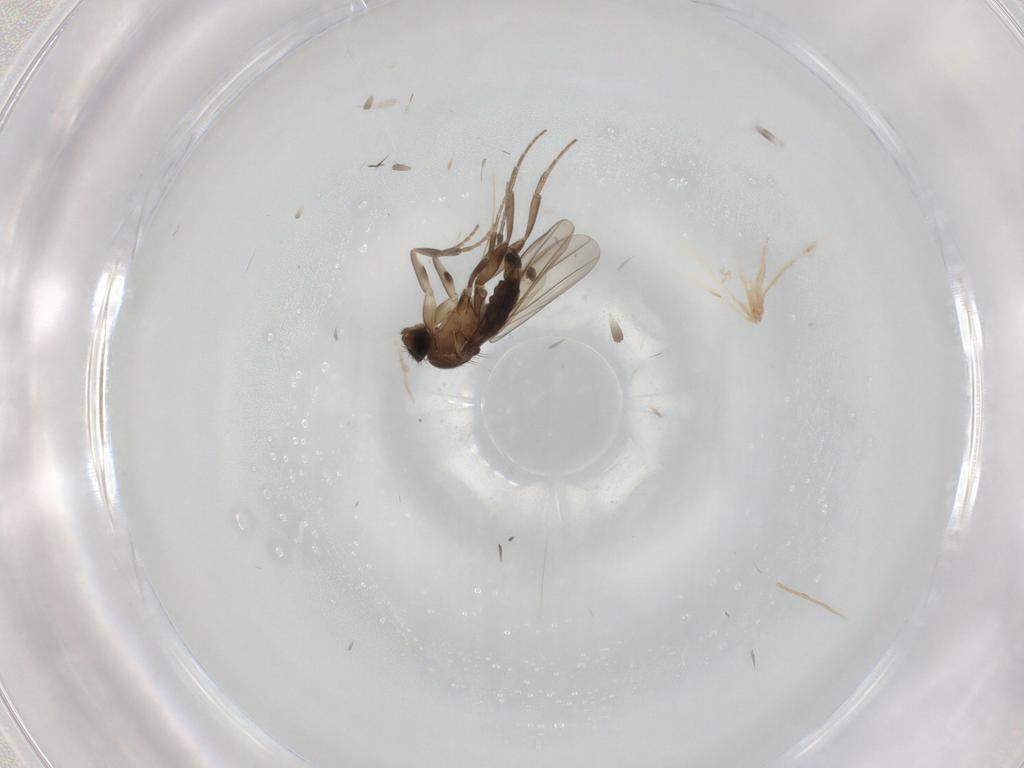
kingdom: Animalia
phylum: Arthropoda
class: Insecta
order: Diptera
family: Phoridae
